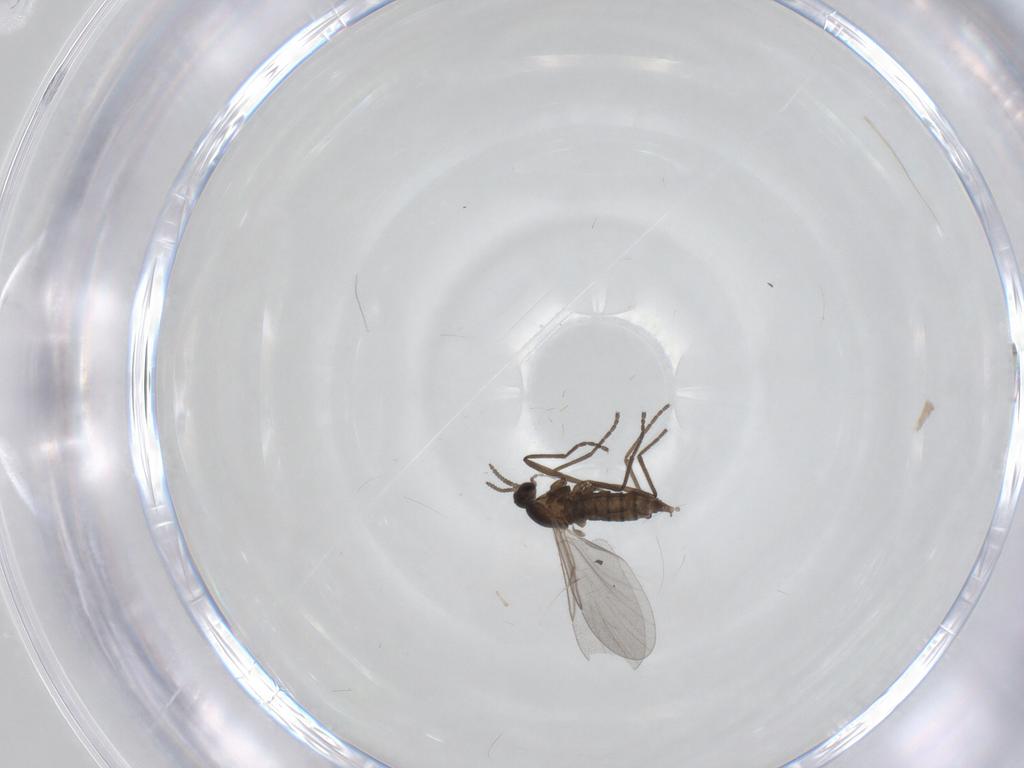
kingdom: Animalia
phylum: Arthropoda
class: Insecta
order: Diptera
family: Cecidomyiidae
